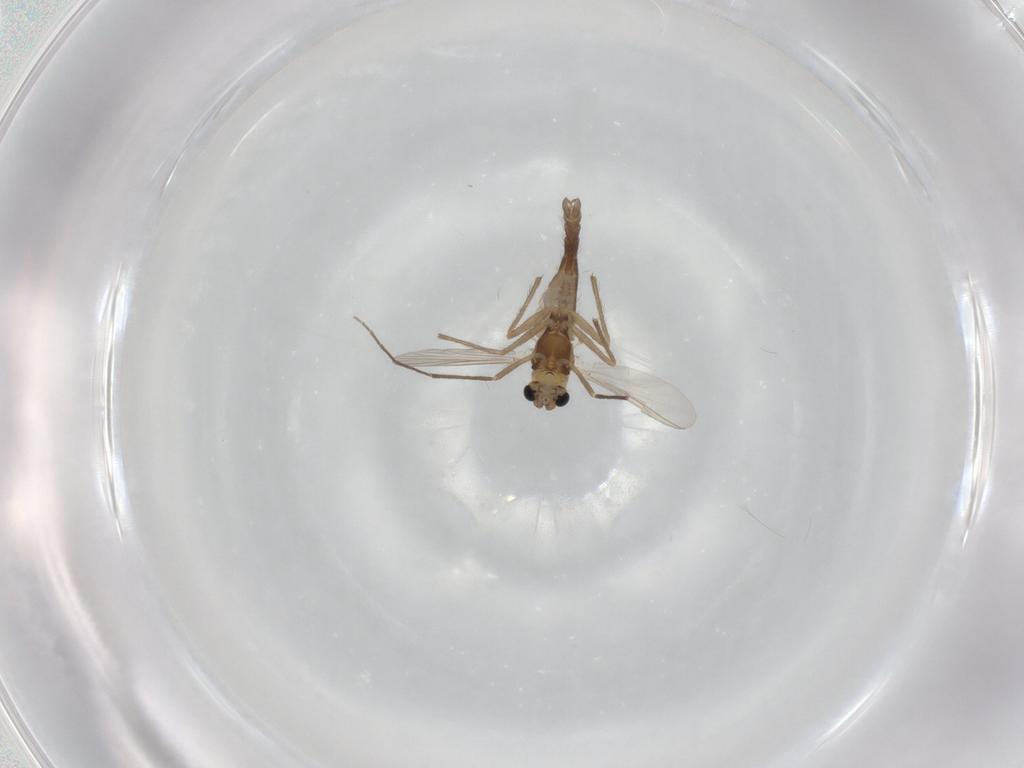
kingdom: Animalia
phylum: Arthropoda
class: Insecta
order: Diptera
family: Chironomidae
